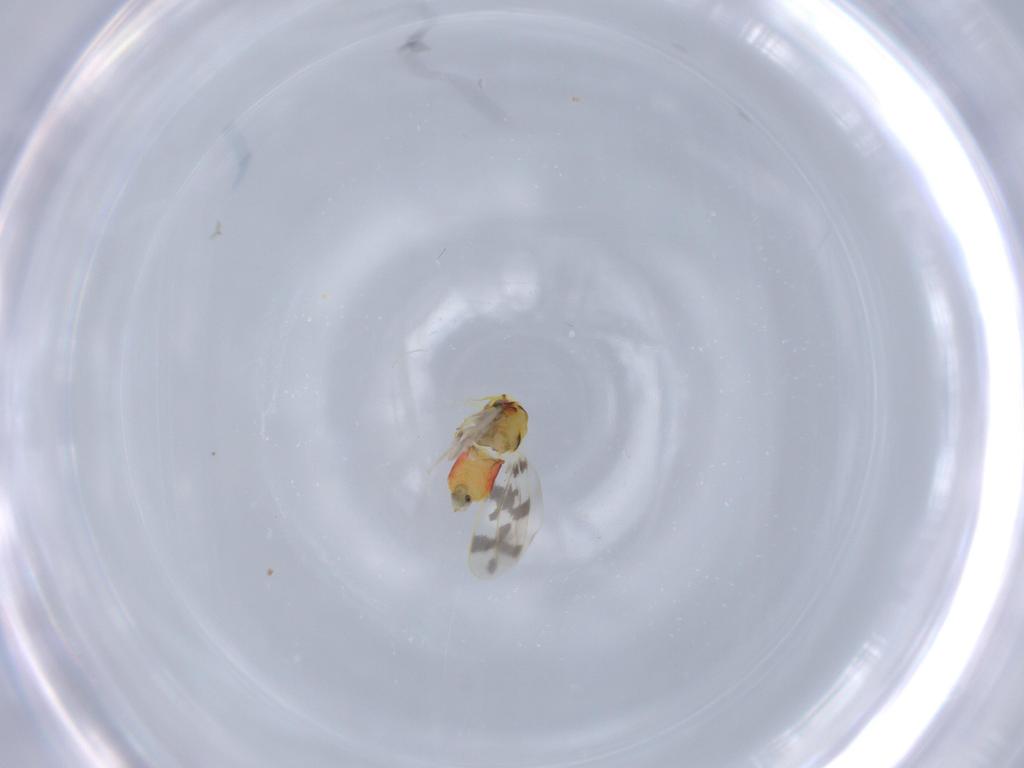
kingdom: Animalia
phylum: Arthropoda
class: Insecta
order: Hemiptera
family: Aleyrodidae
